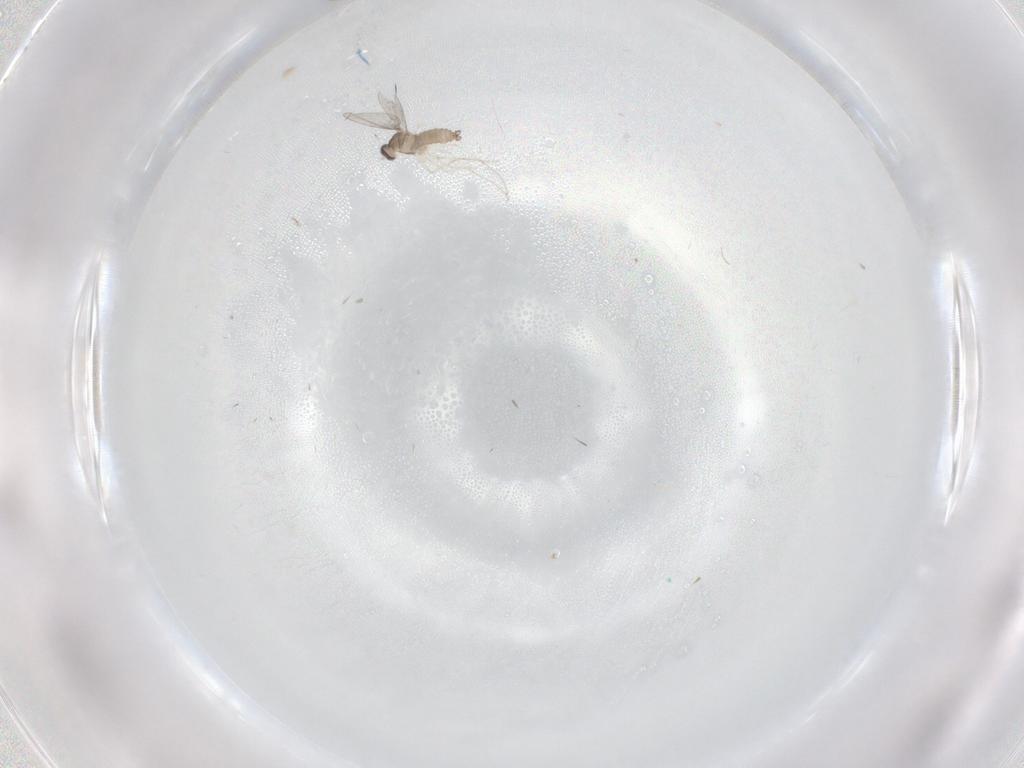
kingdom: Animalia
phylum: Arthropoda
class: Insecta
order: Diptera
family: Cecidomyiidae
